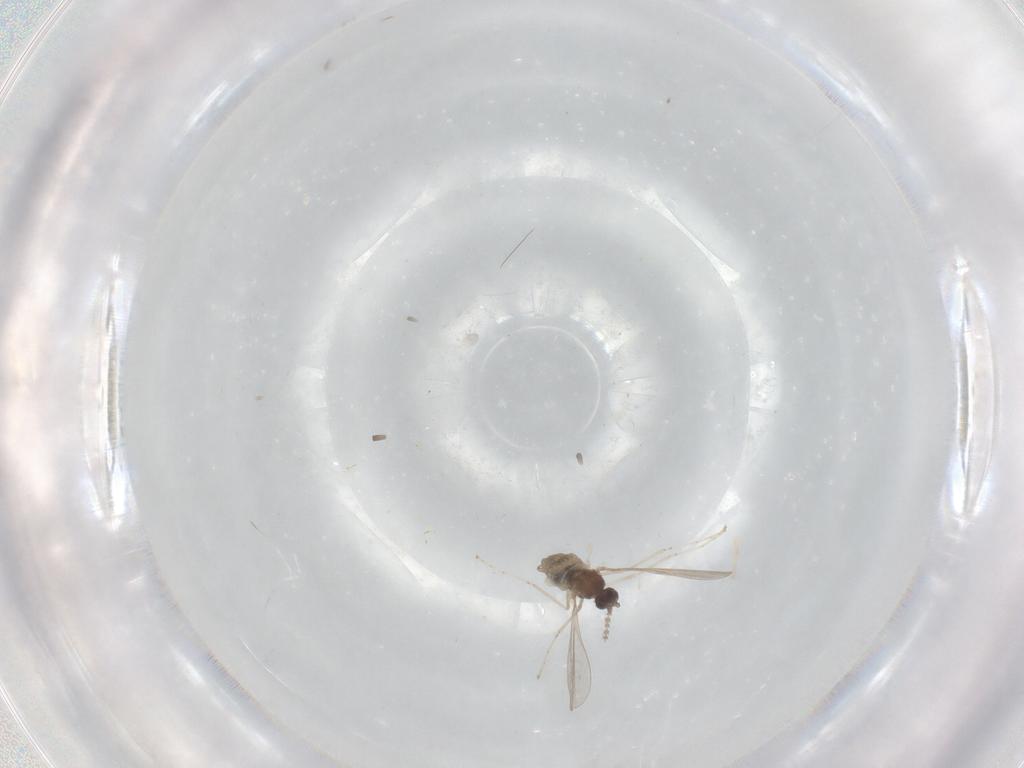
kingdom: Animalia
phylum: Arthropoda
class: Insecta
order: Diptera
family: Cecidomyiidae
